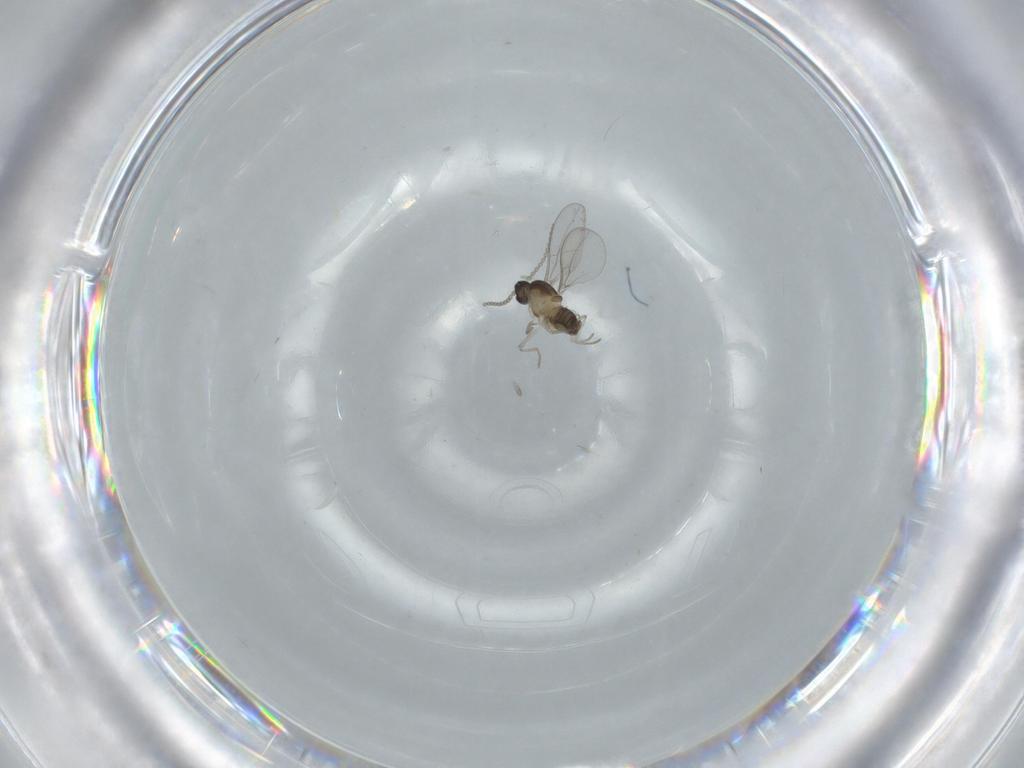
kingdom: Animalia
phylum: Arthropoda
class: Insecta
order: Diptera
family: Cecidomyiidae
